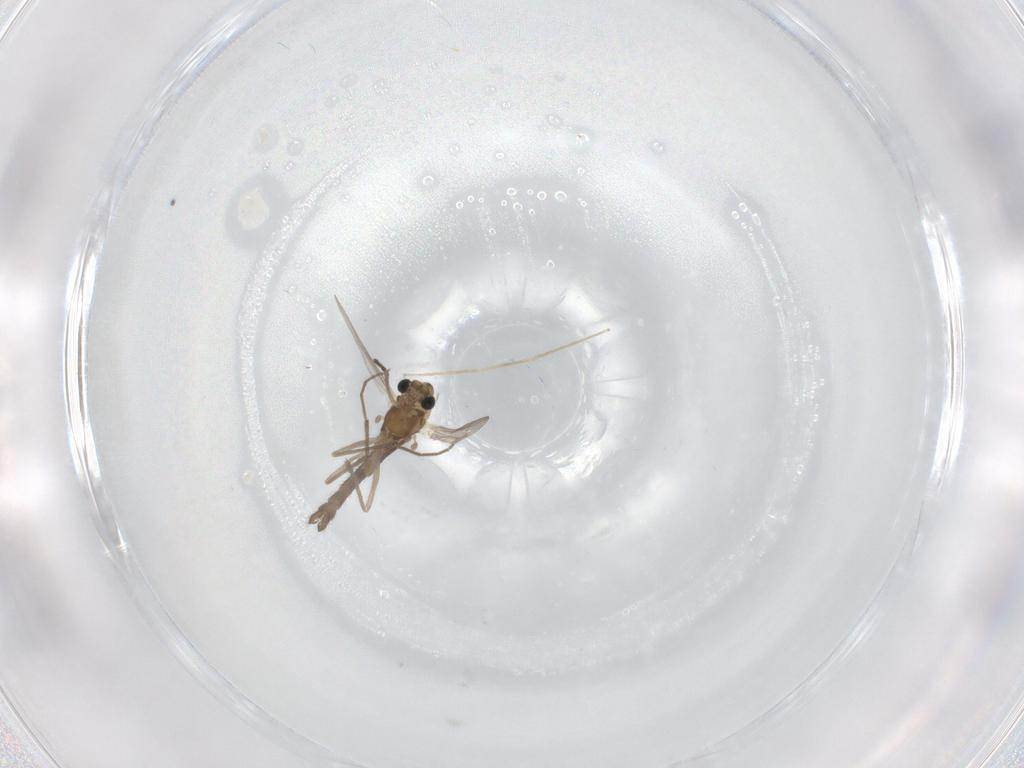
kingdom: Animalia
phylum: Arthropoda
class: Insecta
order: Diptera
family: Chironomidae
